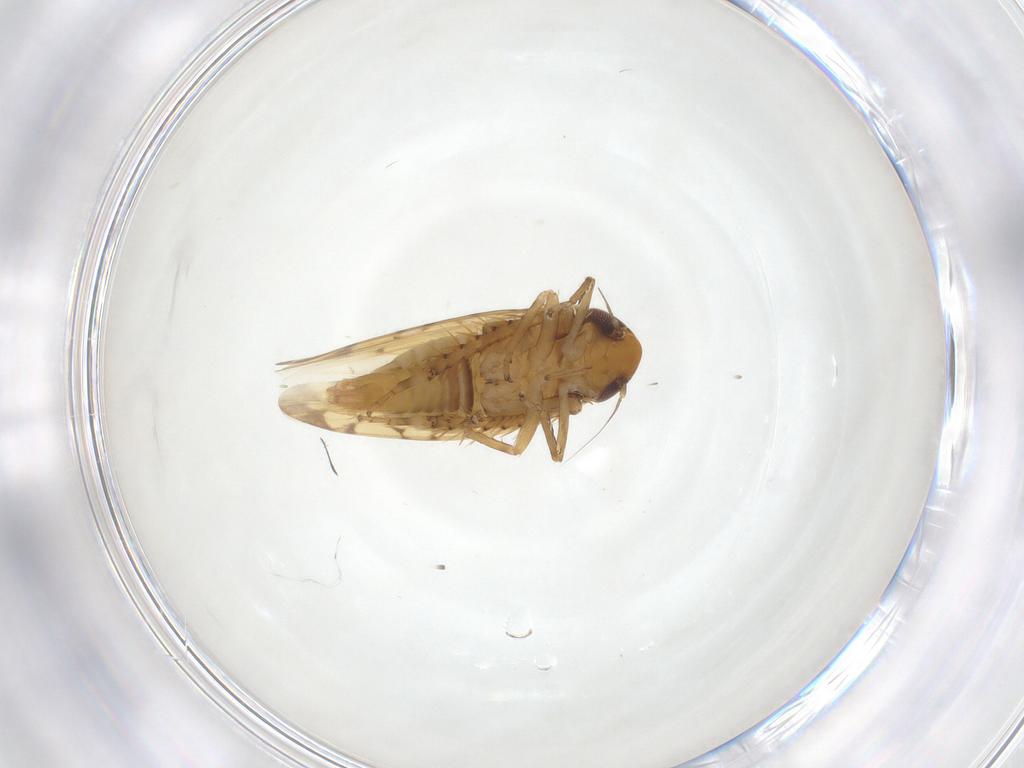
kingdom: Animalia
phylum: Arthropoda
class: Insecta
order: Hemiptera
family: Cicadellidae
